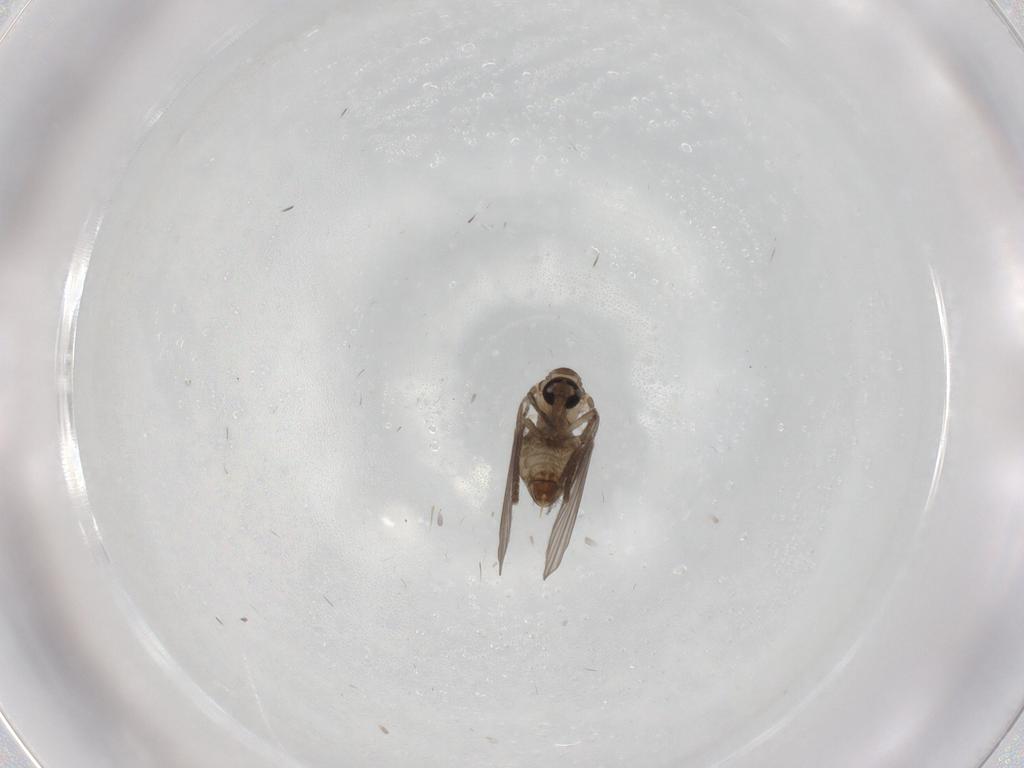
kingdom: Animalia
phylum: Arthropoda
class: Insecta
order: Diptera
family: Psychodidae
